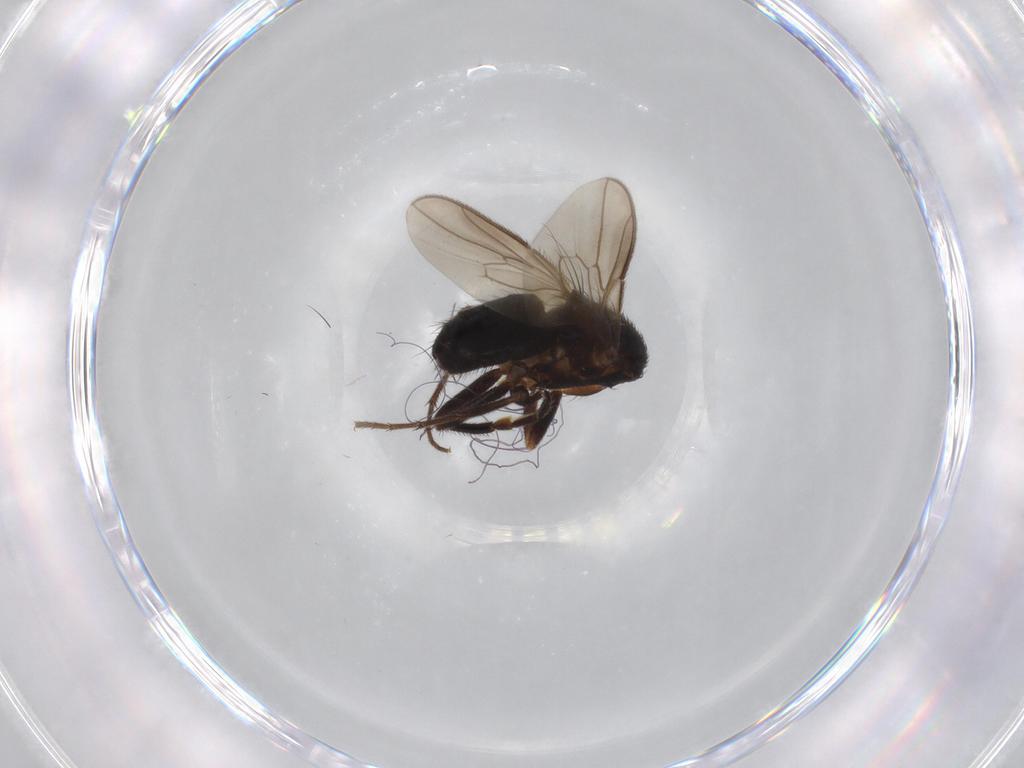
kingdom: Animalia
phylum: Arthropoda
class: Insecta
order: Diptera
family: Sphaeroceridae
